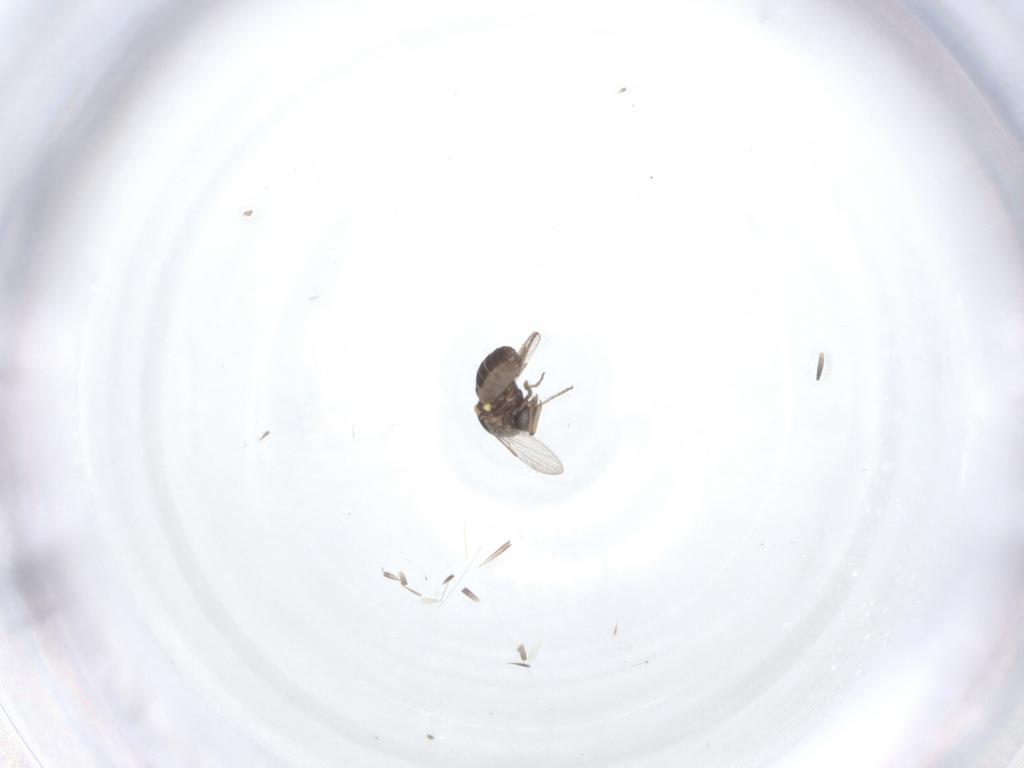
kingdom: Animalia
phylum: Arthropoda
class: Insecta
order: Diptera
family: Ceratopogonidae
